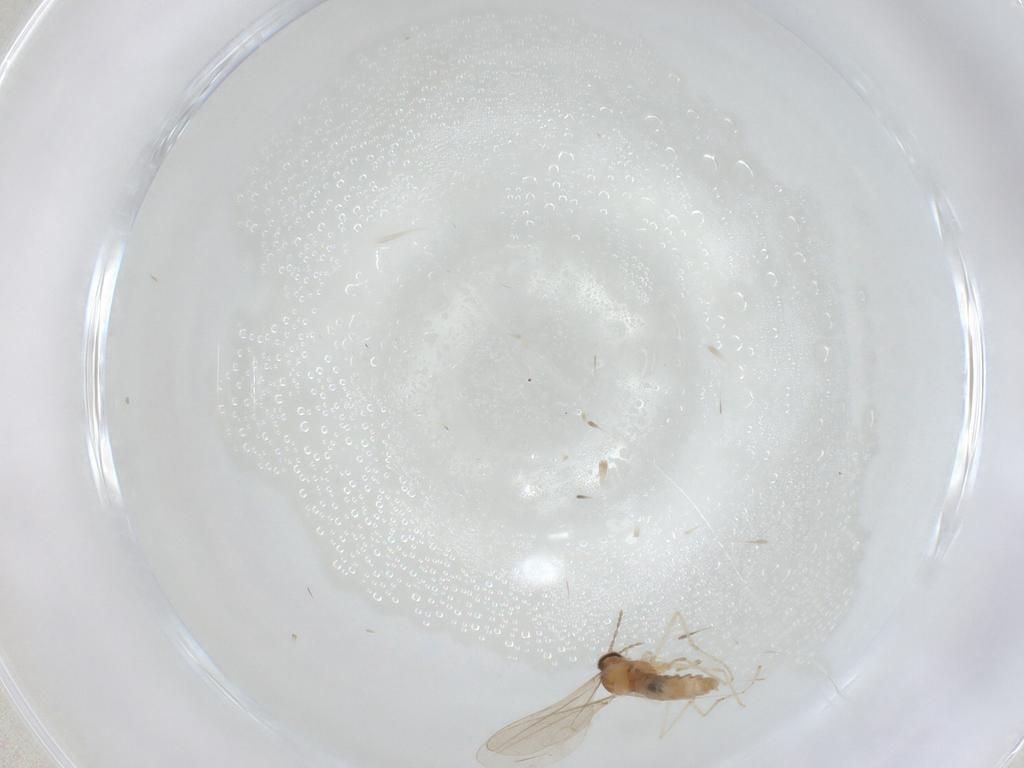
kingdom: Animalia
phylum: Arthropoda
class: Insecta
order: Diptera
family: Cecidomyiidae
